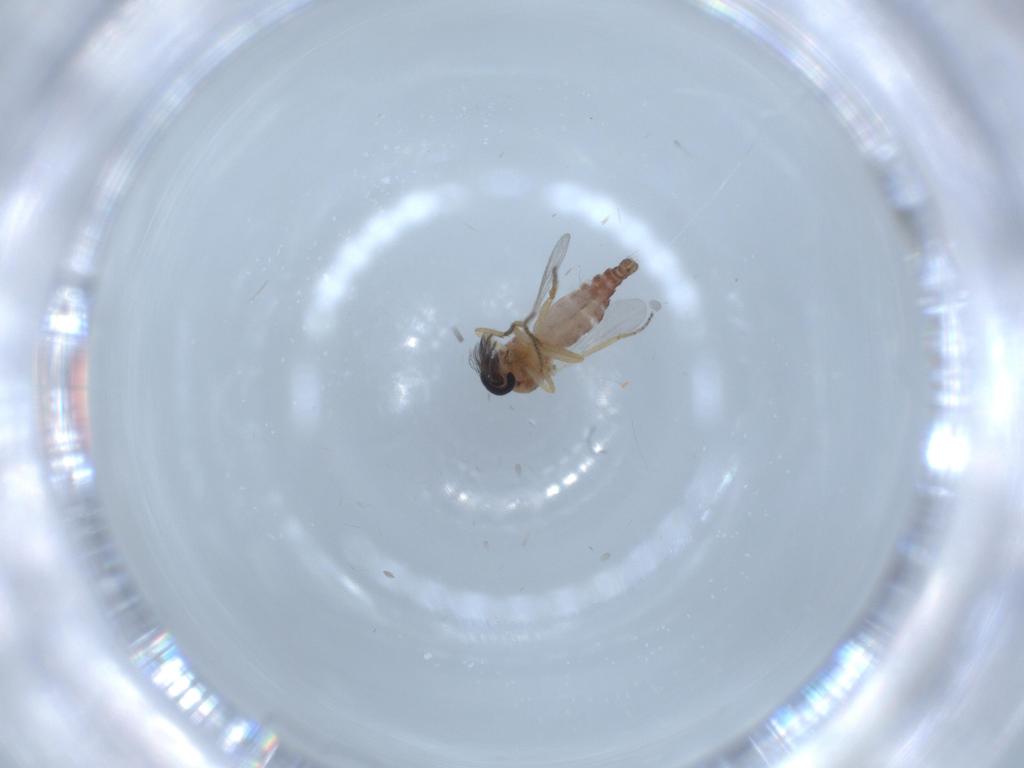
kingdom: Animalia
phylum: Arthropoda
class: Insecta
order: Diptera
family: Ceratopogonidae
